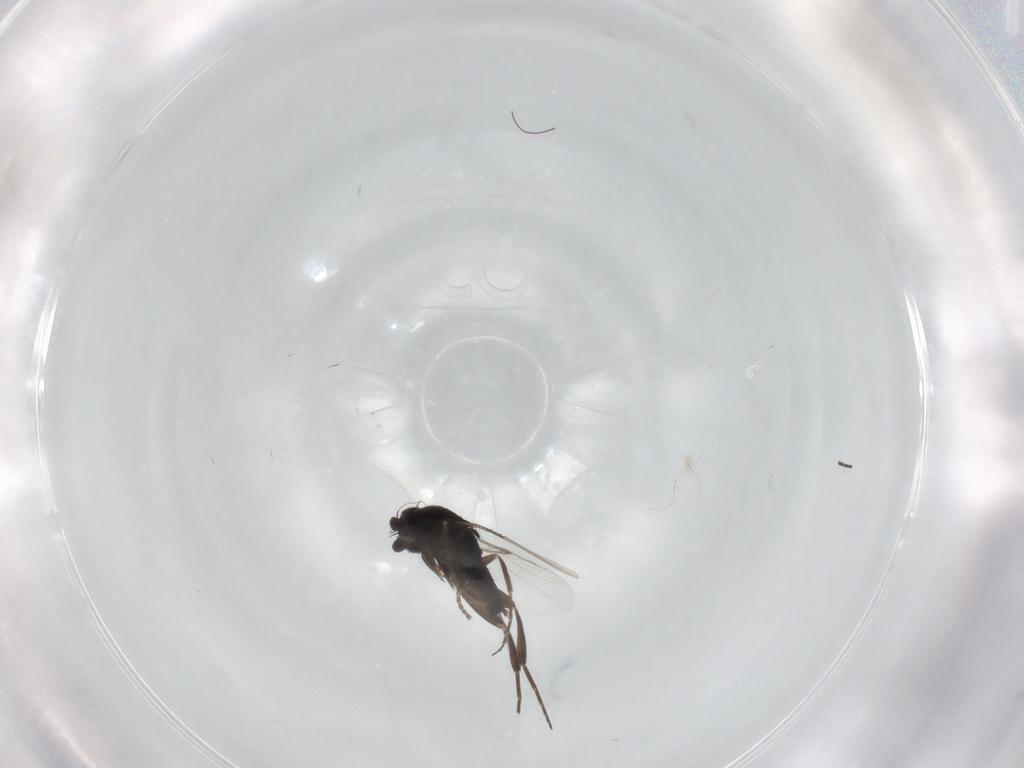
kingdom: Animalia
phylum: Arthropoda
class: Insecta
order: Diptera
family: Phoridae
